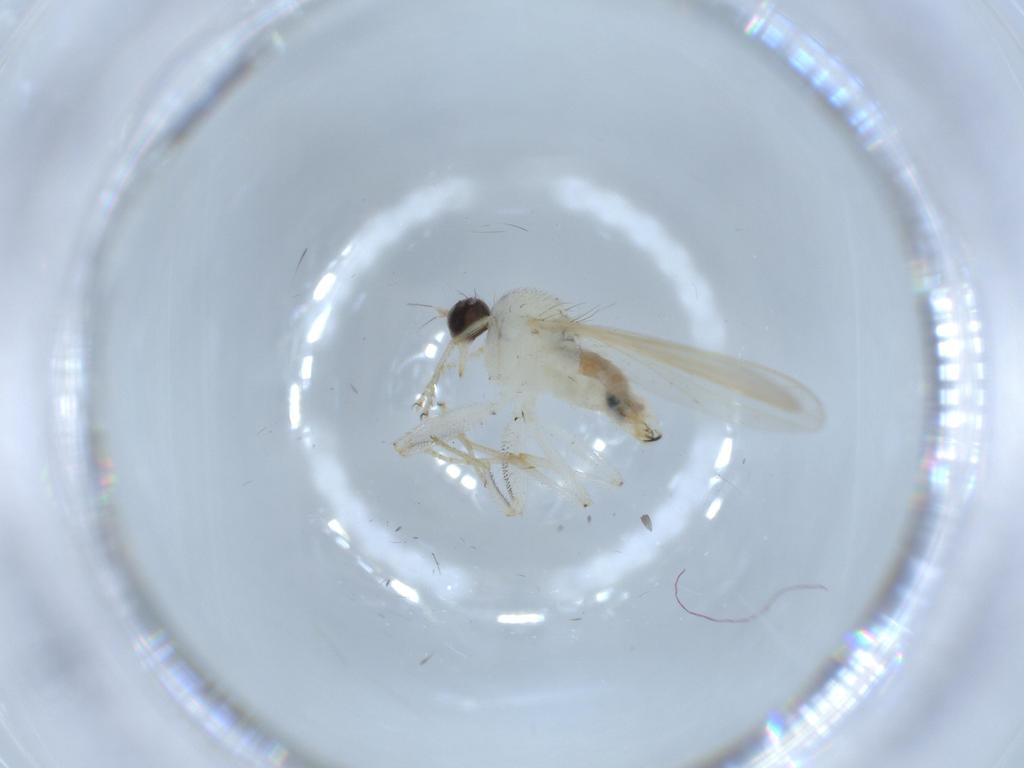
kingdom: Animalia
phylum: Arthropoda
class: Insecta
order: Diptera
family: Hybotidae
